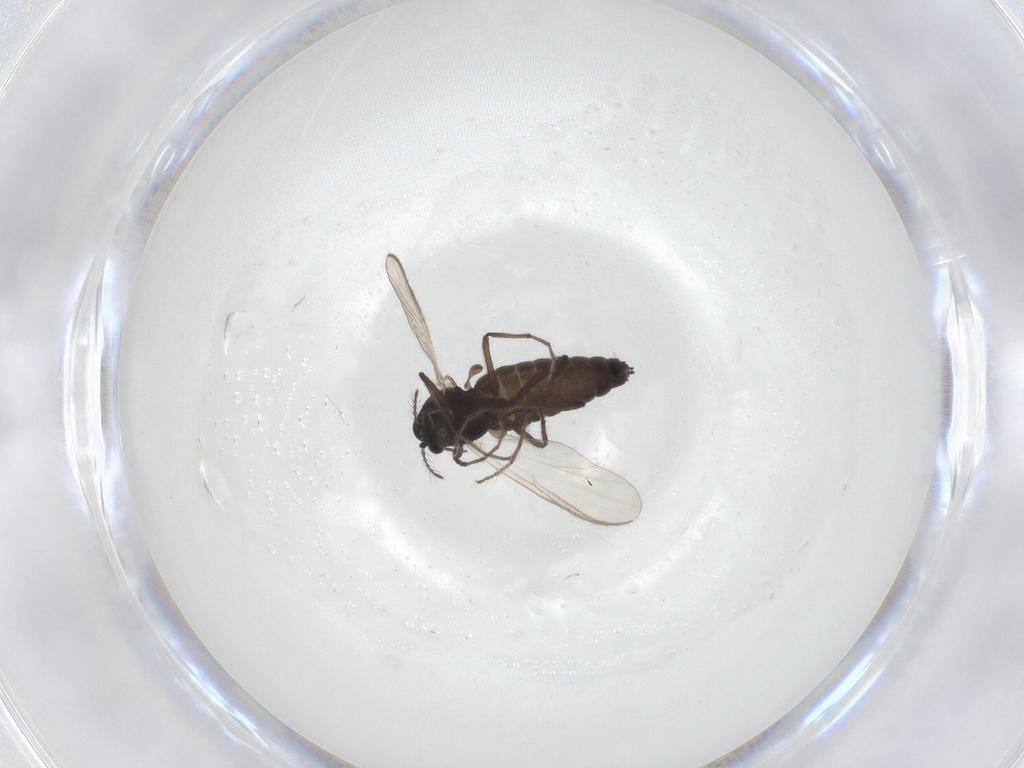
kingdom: Animalia
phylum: Arthropoda
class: Insecta
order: Diptera
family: Chironomidae
